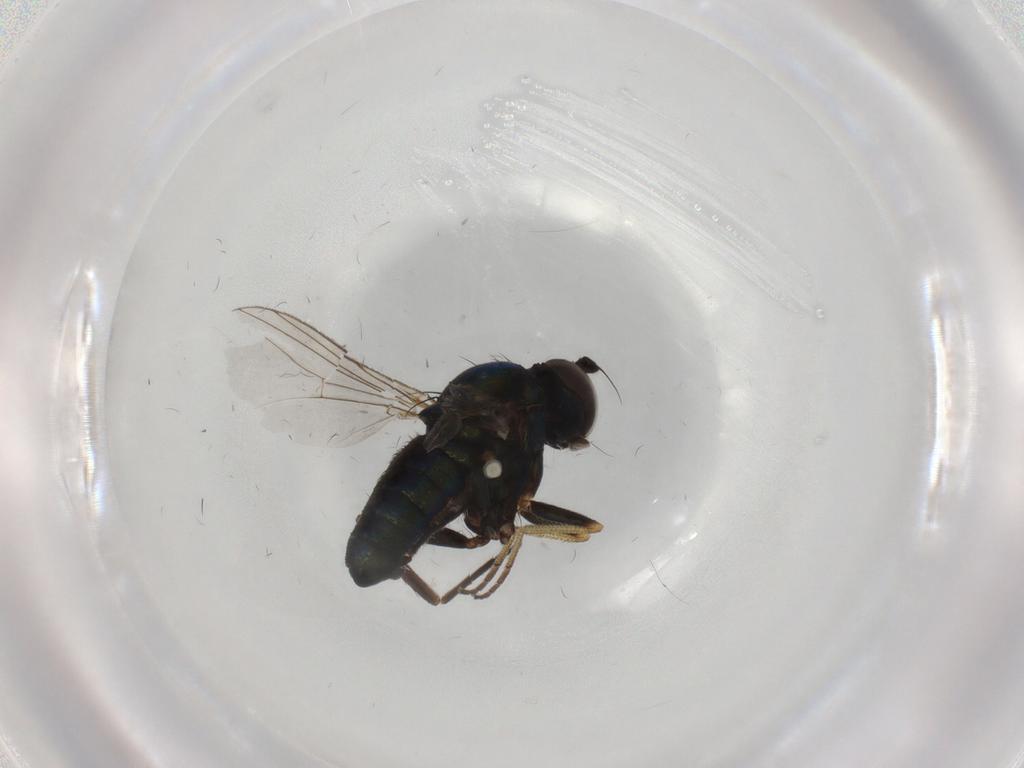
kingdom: Animalia
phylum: Arthropoda
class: Insecta
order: Diptera
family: Dolichopodidae
